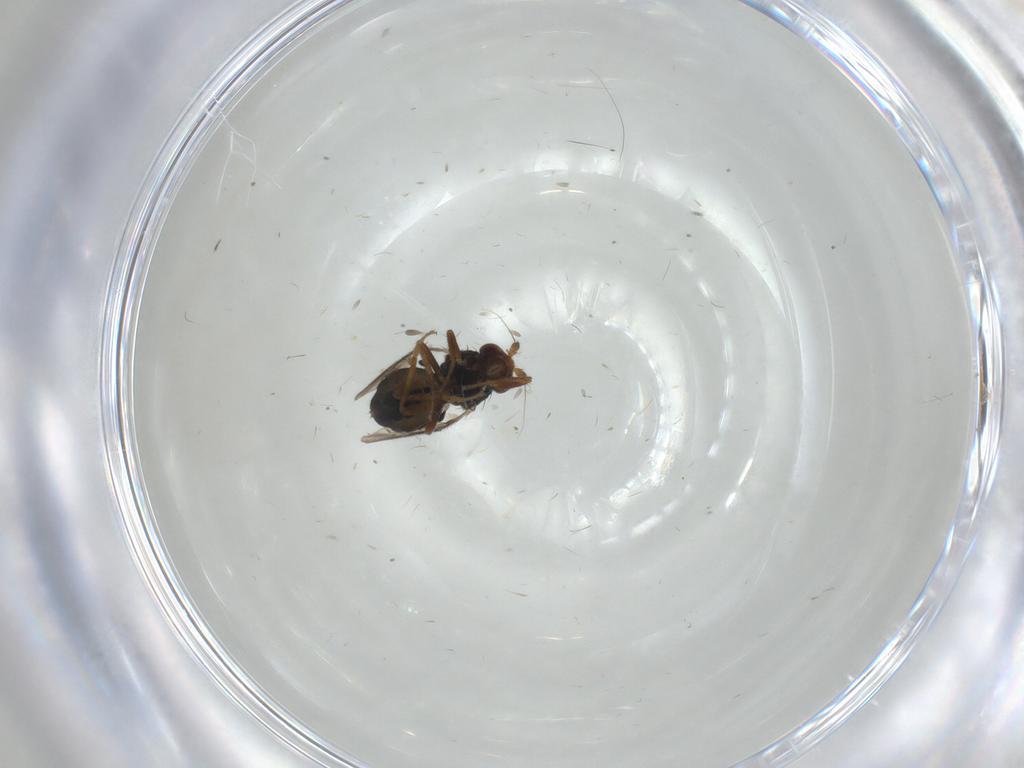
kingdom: Animalia
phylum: Arthropoda
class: Insecta
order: Diptera
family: Sphaeroceridae
